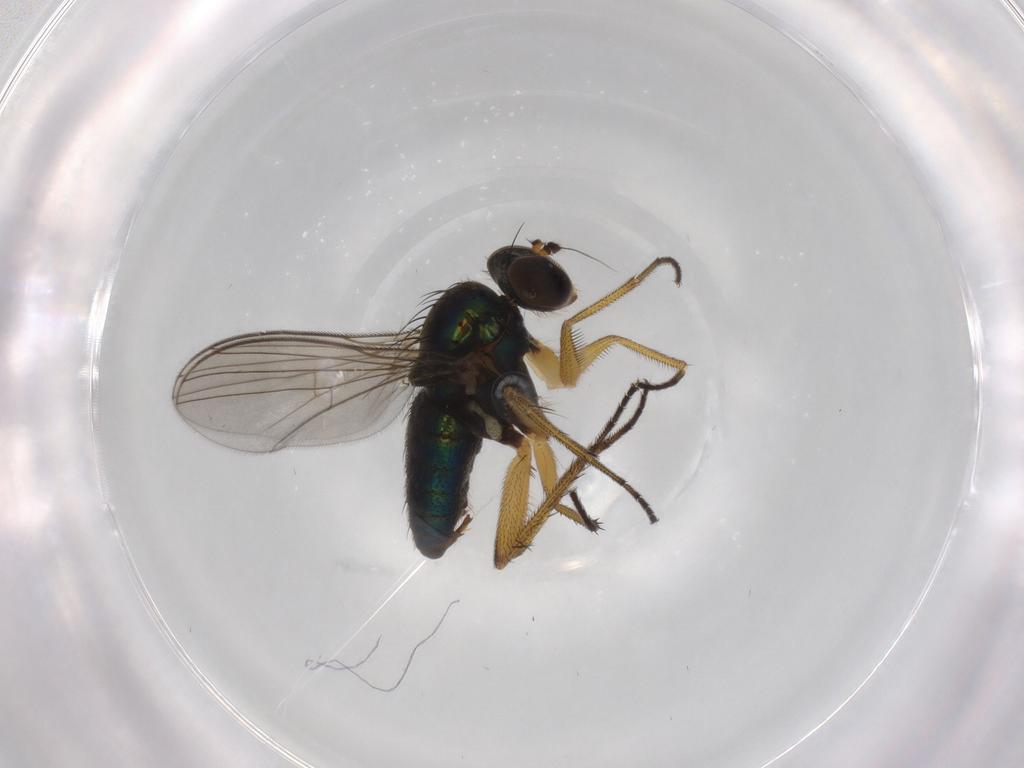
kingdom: Animalia
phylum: Arthropoda
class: Insecta
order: Diptera
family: Dolichopodidae
